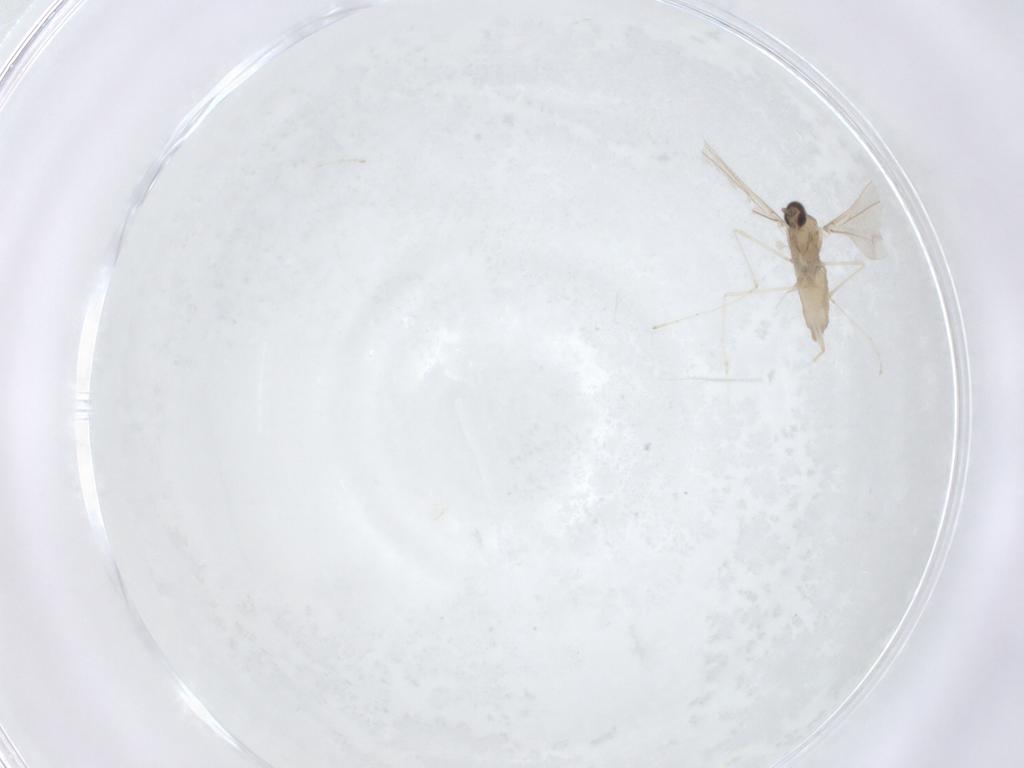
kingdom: Animalia
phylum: Arthropoda
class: Insecta
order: Diptera
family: Cecidomyiidae
